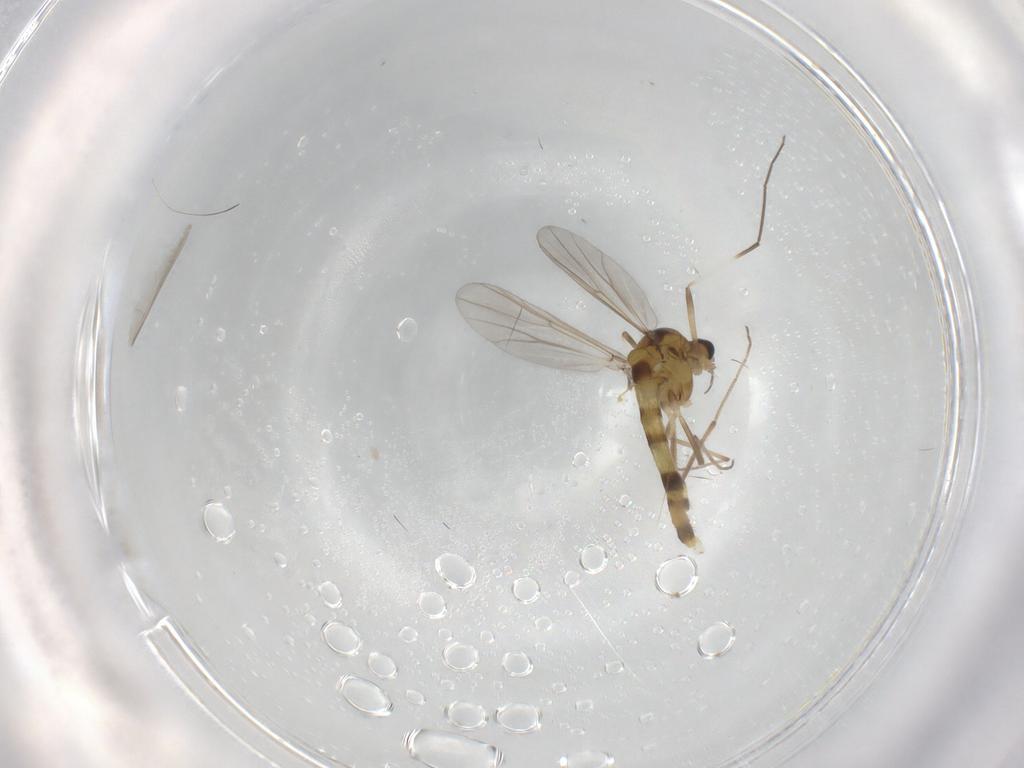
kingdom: Animalia
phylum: Arthropoda
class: Insecta
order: Diptera
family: Chironomidae
